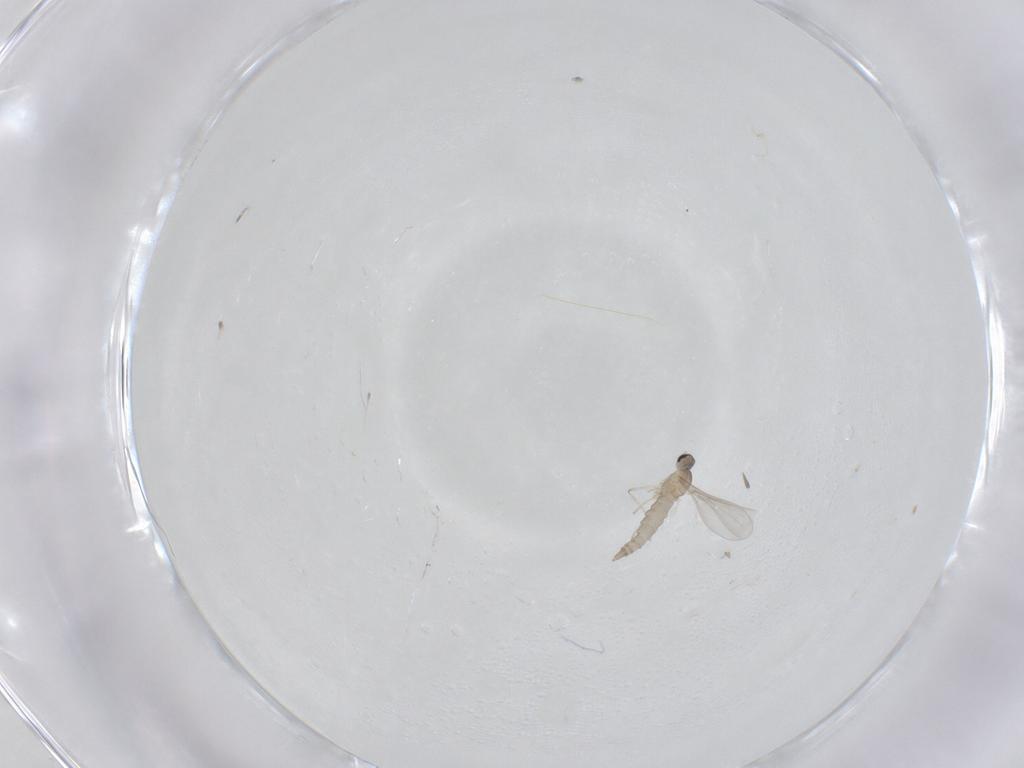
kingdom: Animalia
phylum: Arthropoda
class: Insecta
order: Diptera
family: Cecidomyiidae
